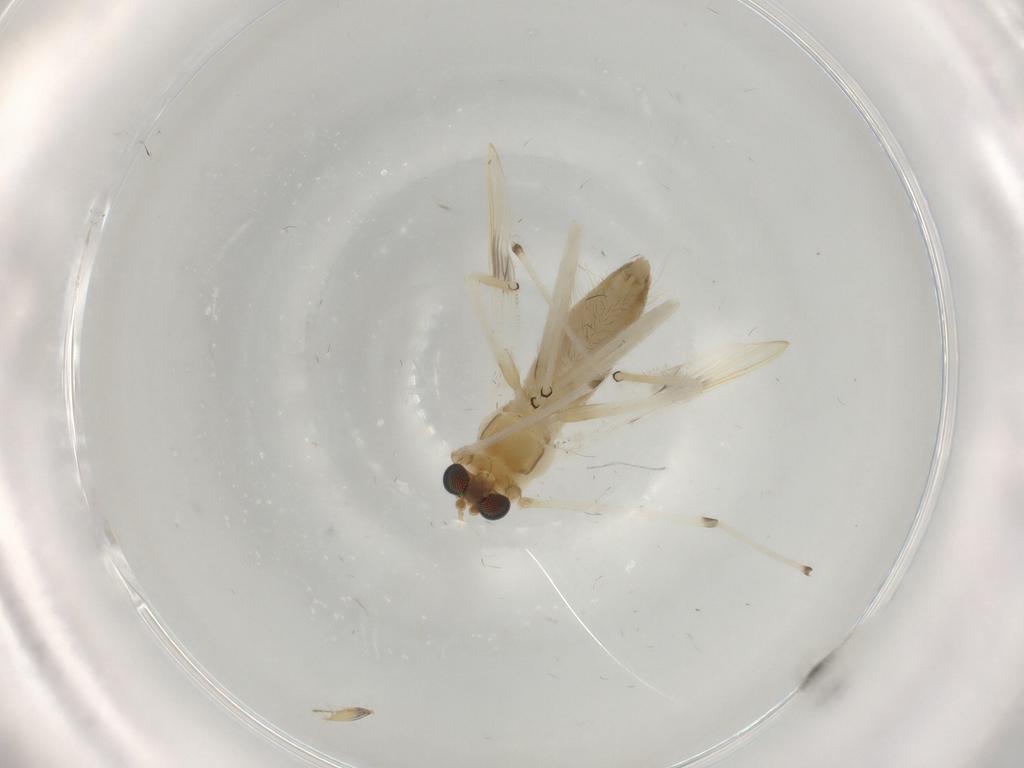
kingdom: Animalia
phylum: Arthropoda
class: Insecta
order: Diptera
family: Chironomidae
